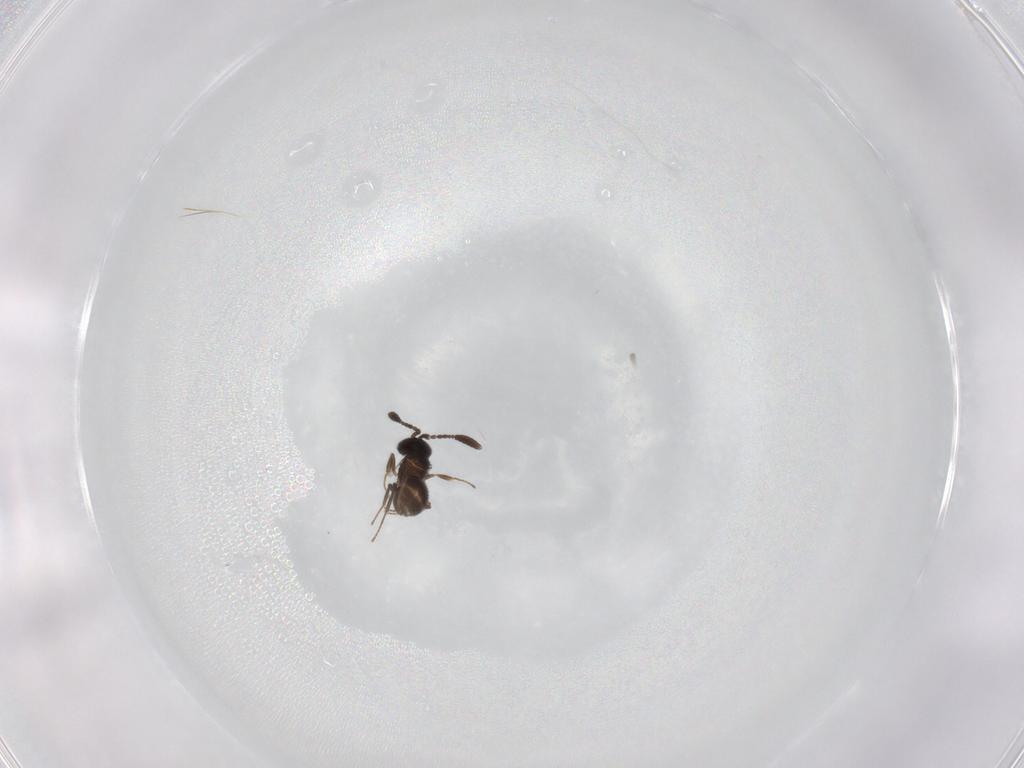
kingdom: Animalia
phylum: Arthropoda
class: Insecta
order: Hymenoptera
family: Scelionidae
